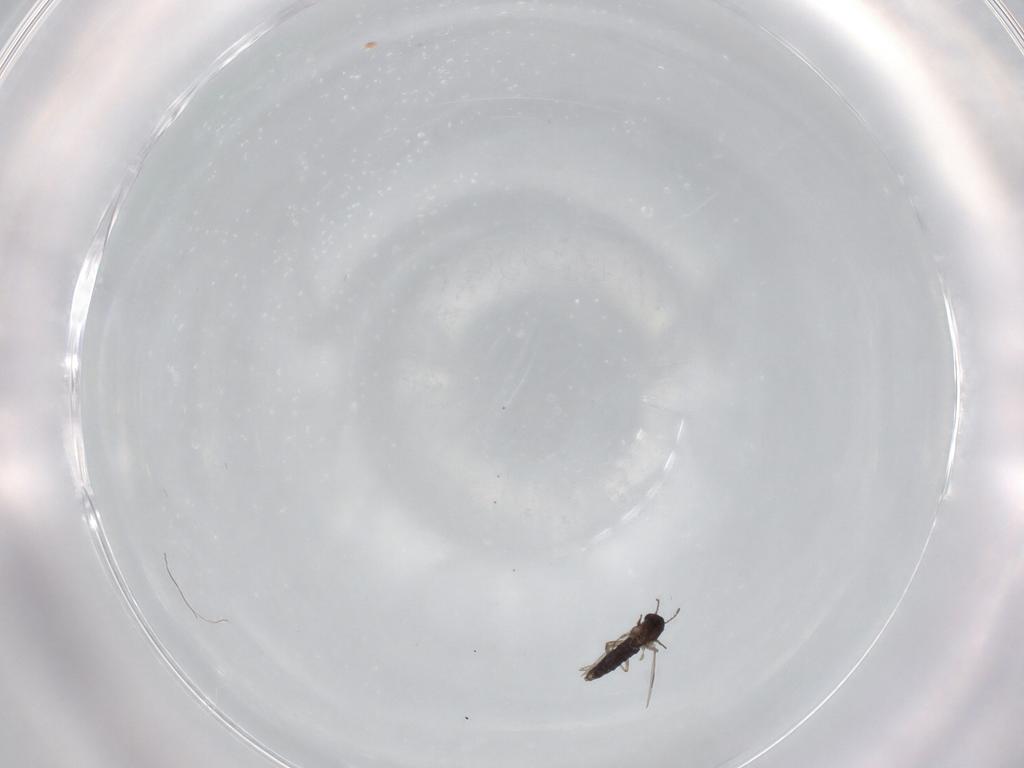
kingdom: Animalia
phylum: Arthropoda
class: Insecta
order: Diptera
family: Chironomidae
